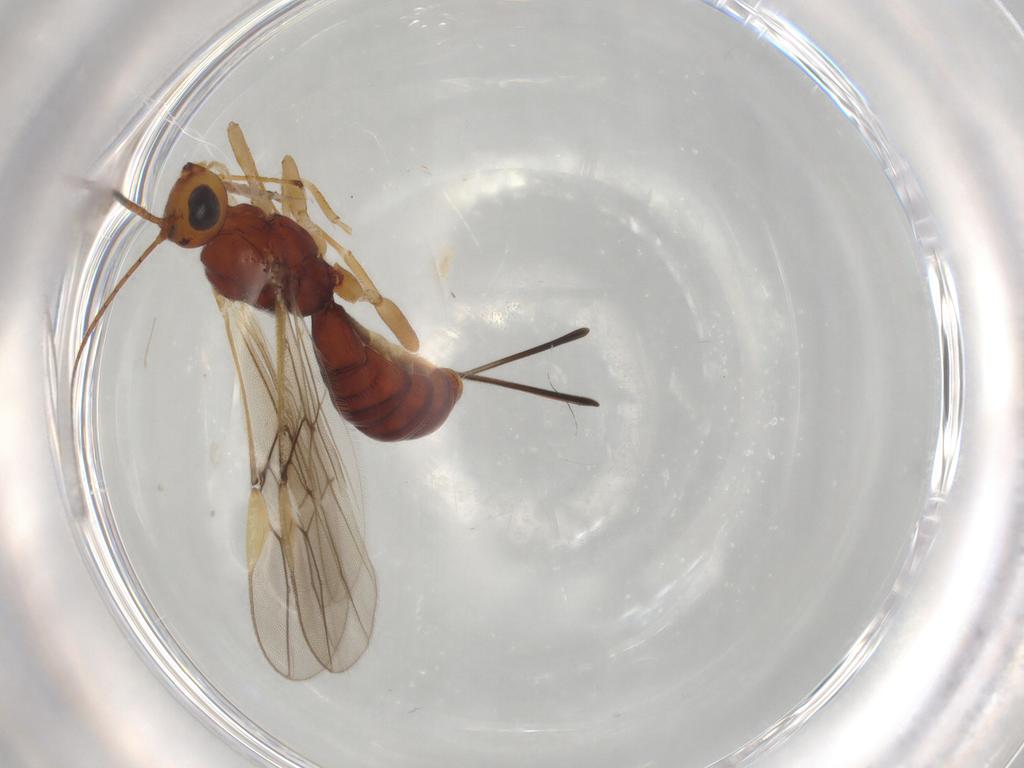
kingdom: Animalia
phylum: Arthropoda
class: Insecta
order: Hymenoptera
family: Braconidae
